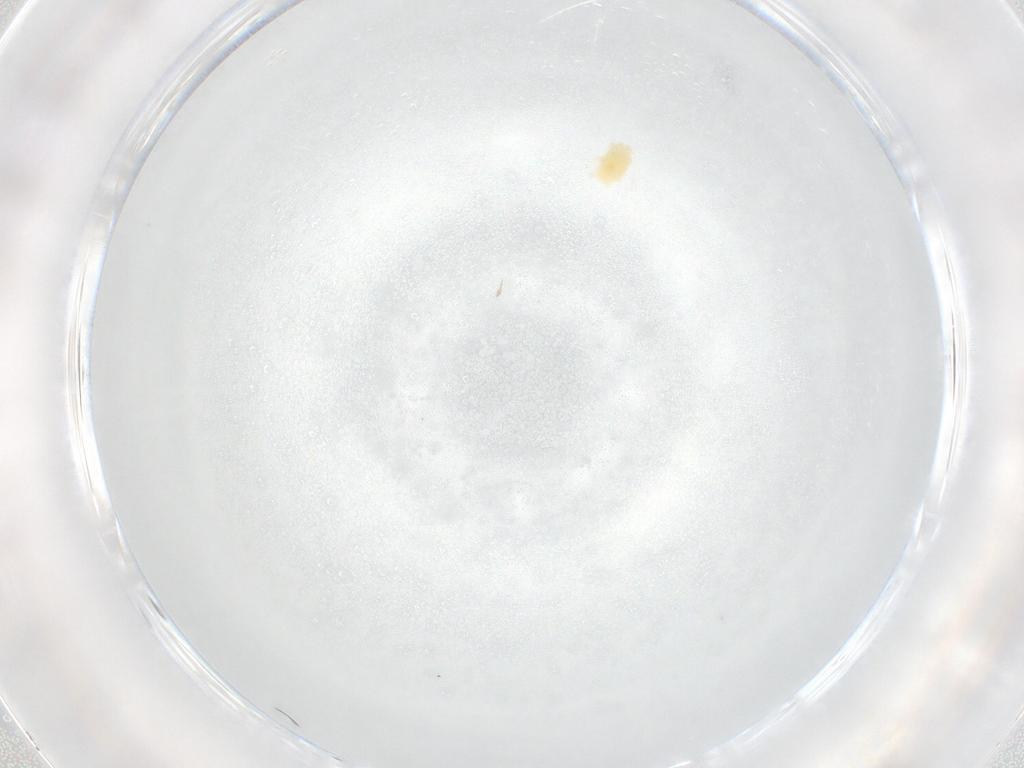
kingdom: Animalia
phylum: Arthropoda
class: Arachnida
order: Trombidiformes
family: Tetranychidae
